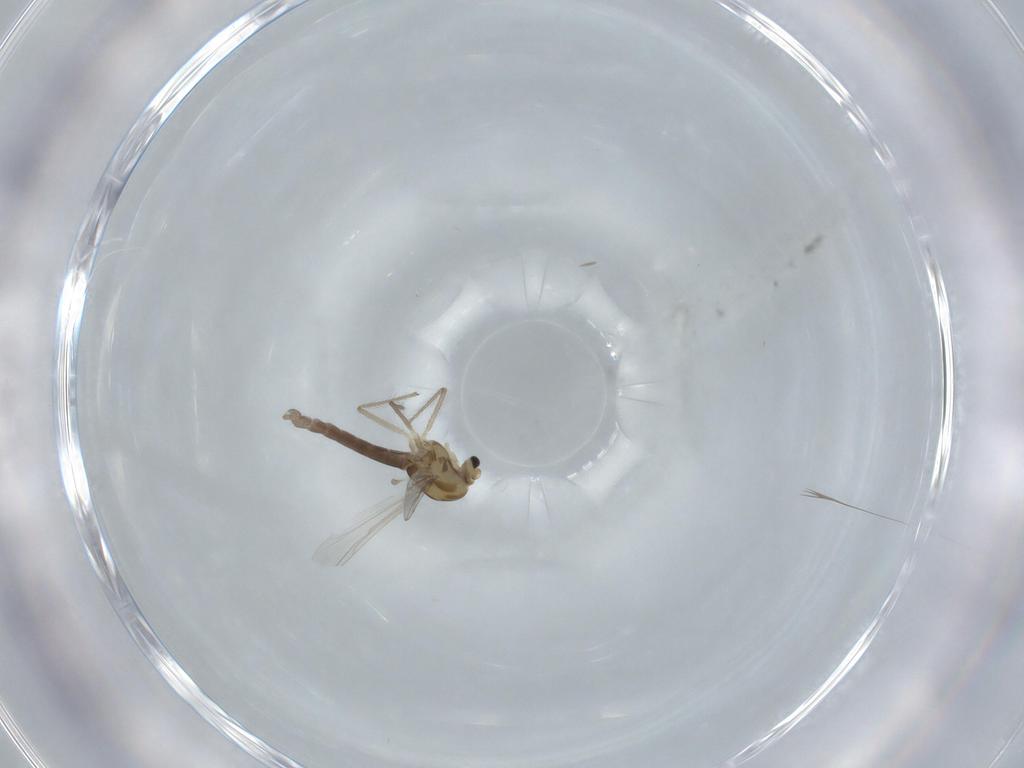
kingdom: Animalia
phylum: Arthropoda
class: Insecta
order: Diptera
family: Chironomidae
